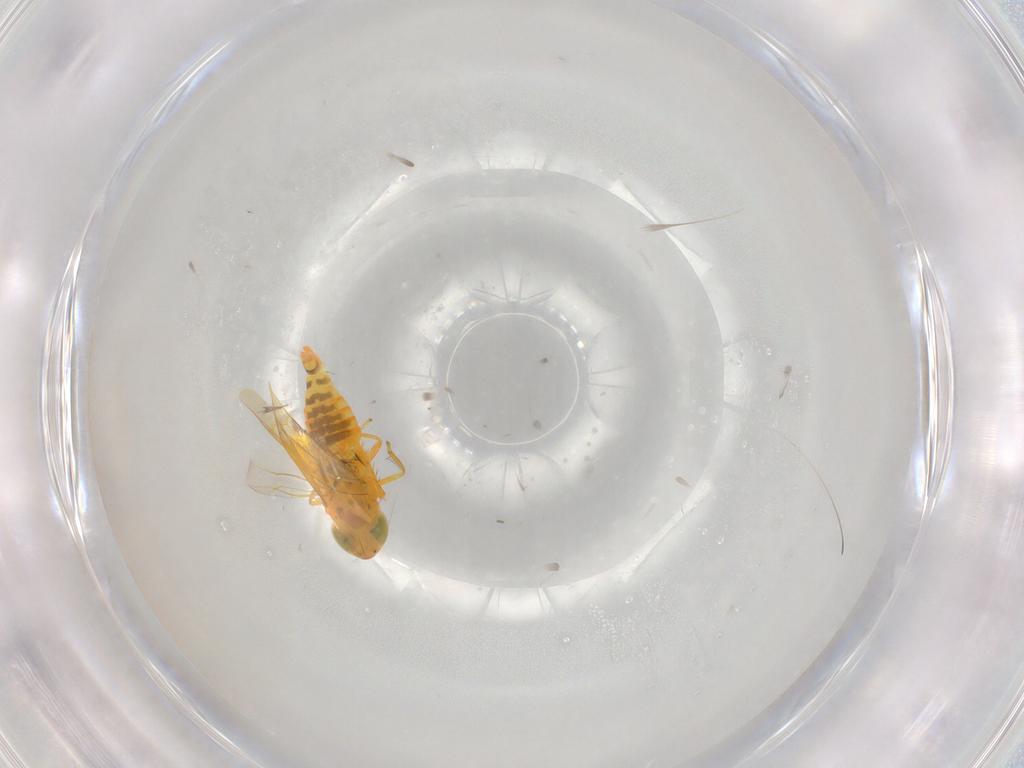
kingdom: Animalia
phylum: Arthropoda
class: Insecta
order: Hemiptera
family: Cicadellidae
